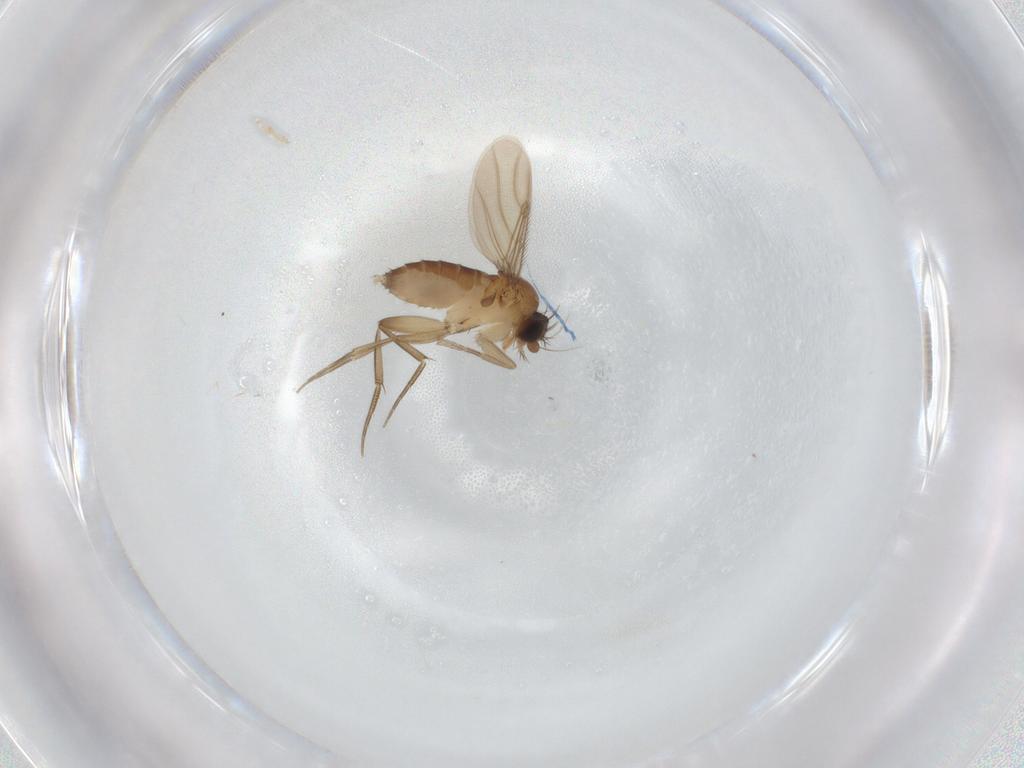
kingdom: Animalia
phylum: Arthropoda
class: Insecta
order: Diptera
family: Phoridae
